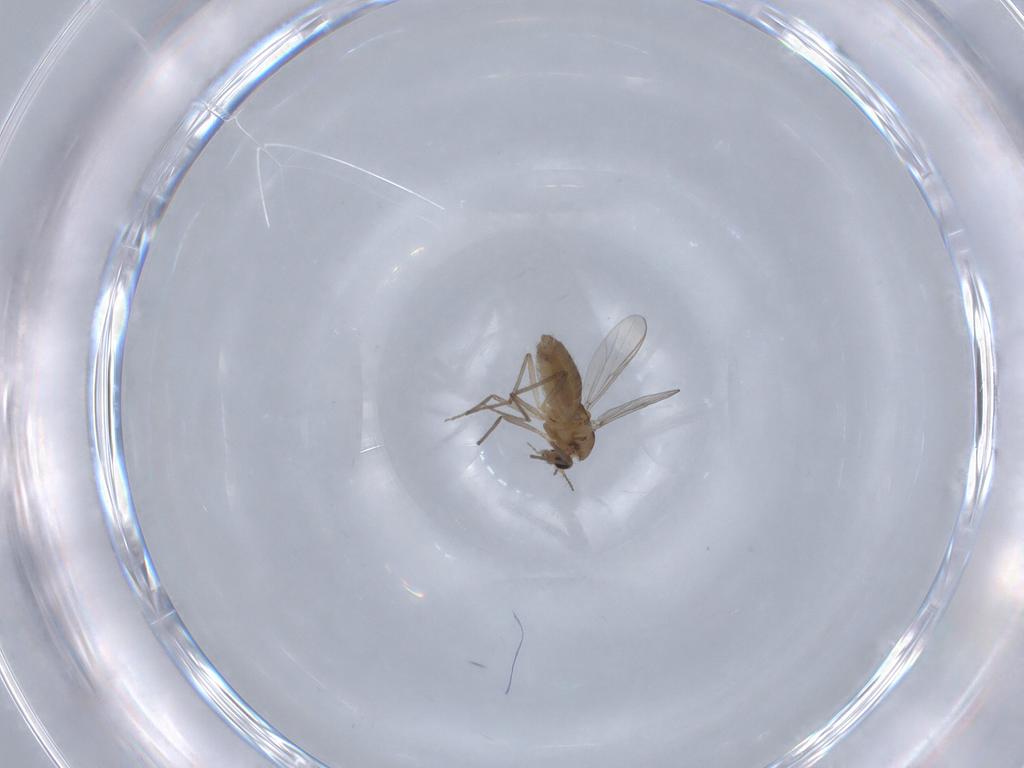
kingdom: Animalia
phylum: Arthropoda
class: Insecta
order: Diptera
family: Chironomidae
